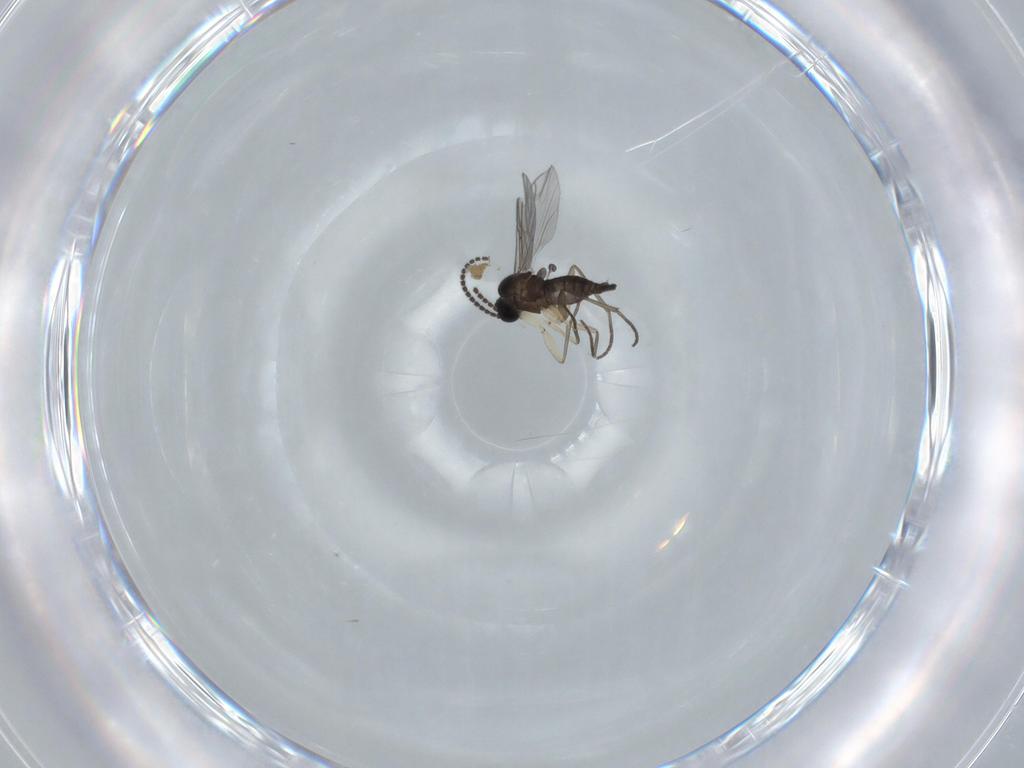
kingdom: Animalia
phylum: Arthropoda
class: Insecta
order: Diptera
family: Sciaridae
